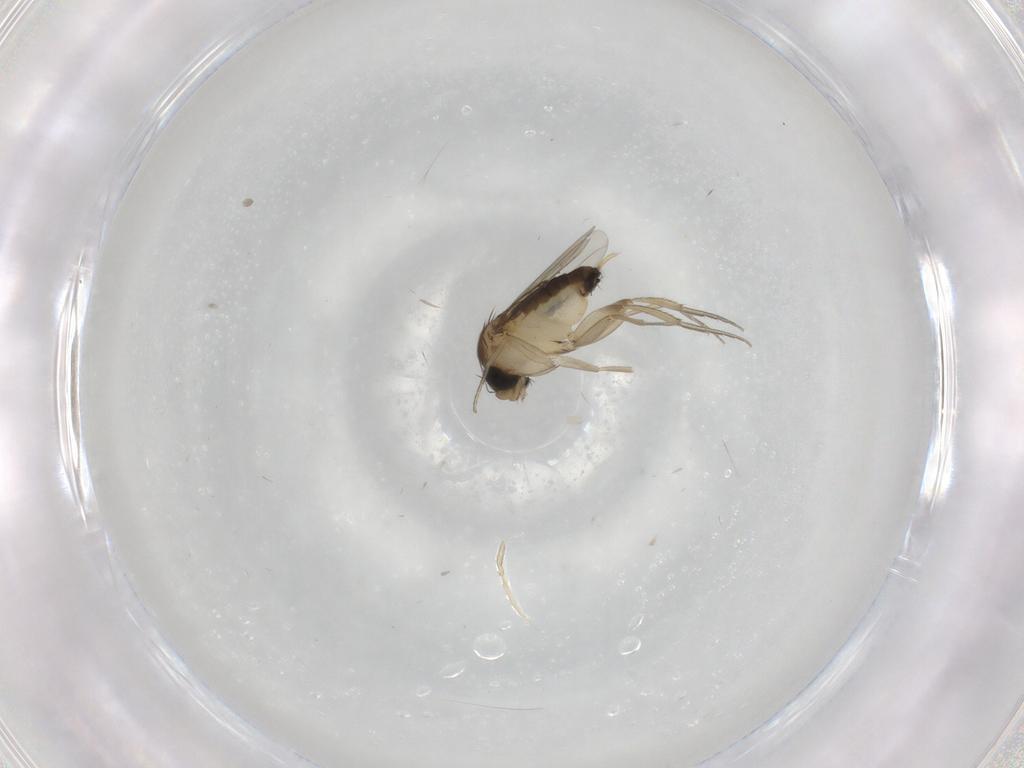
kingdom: Animalia
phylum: Arthropoda
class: Insecta
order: Diptera
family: Phoridae
